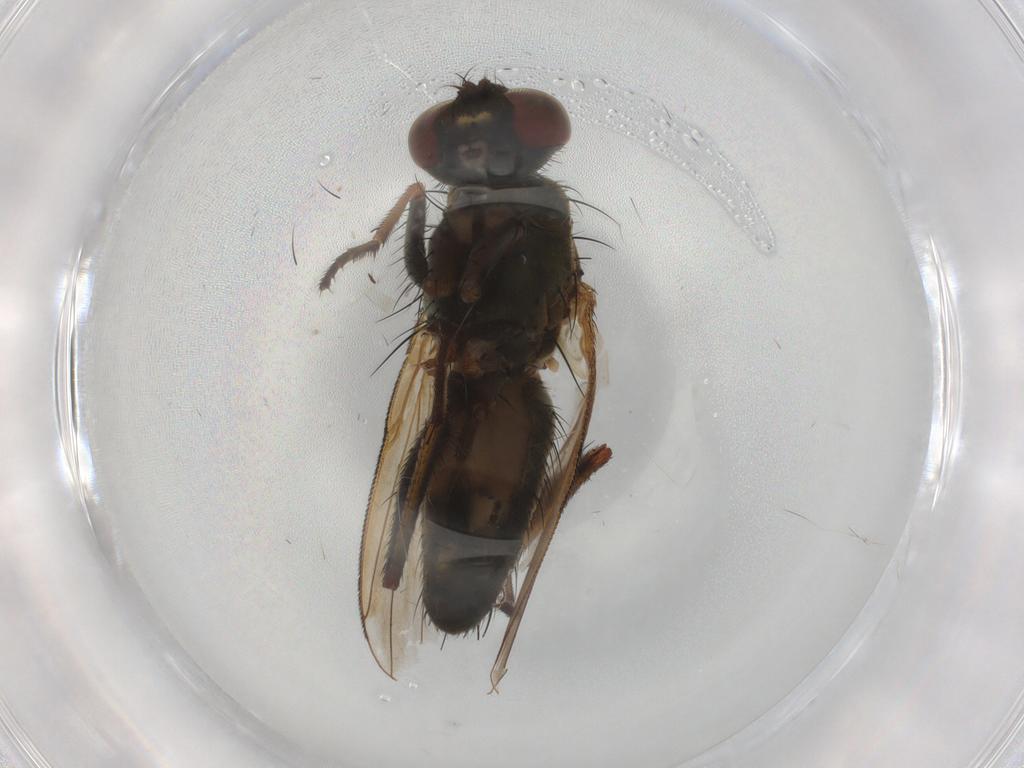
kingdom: Animalia
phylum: Arthropoda
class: Insecta
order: Diptera
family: Muscidae
